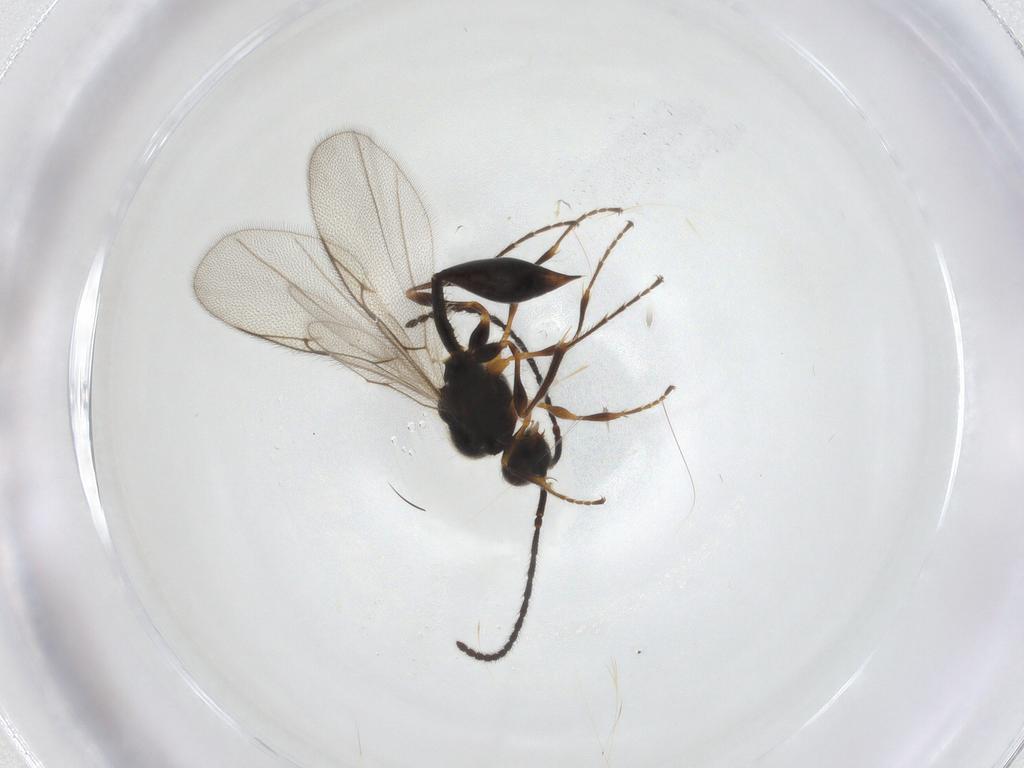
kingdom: Animalia
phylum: Arthropoda
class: Insecta
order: Hymenoptera
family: Diapriidae
